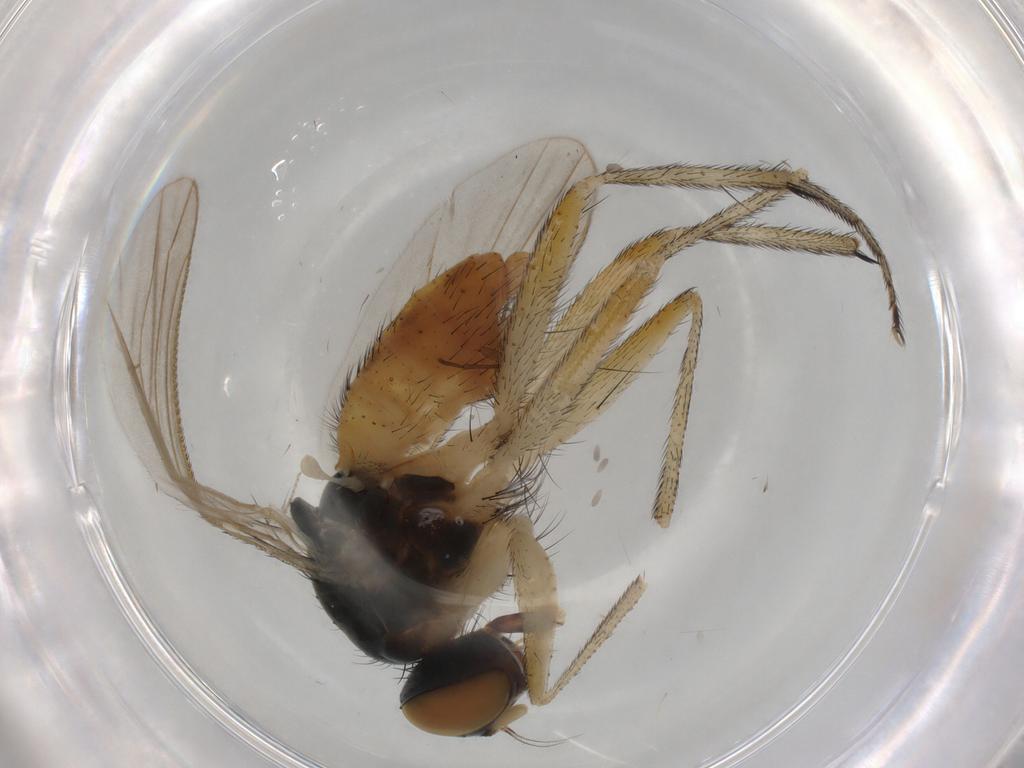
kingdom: Animalia
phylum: Arthropoda
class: Insecta
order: Diptera
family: Muscidae
